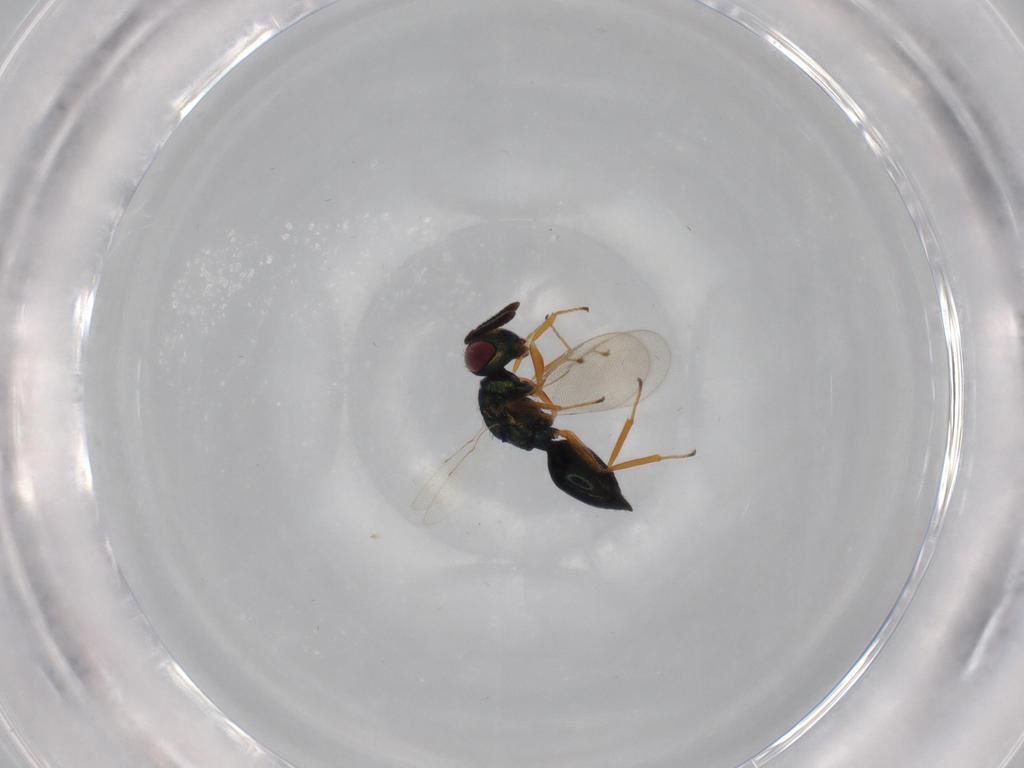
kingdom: Animalia
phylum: Arthropoda
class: Insecta
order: Hymenoptera
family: Pteromalidae
